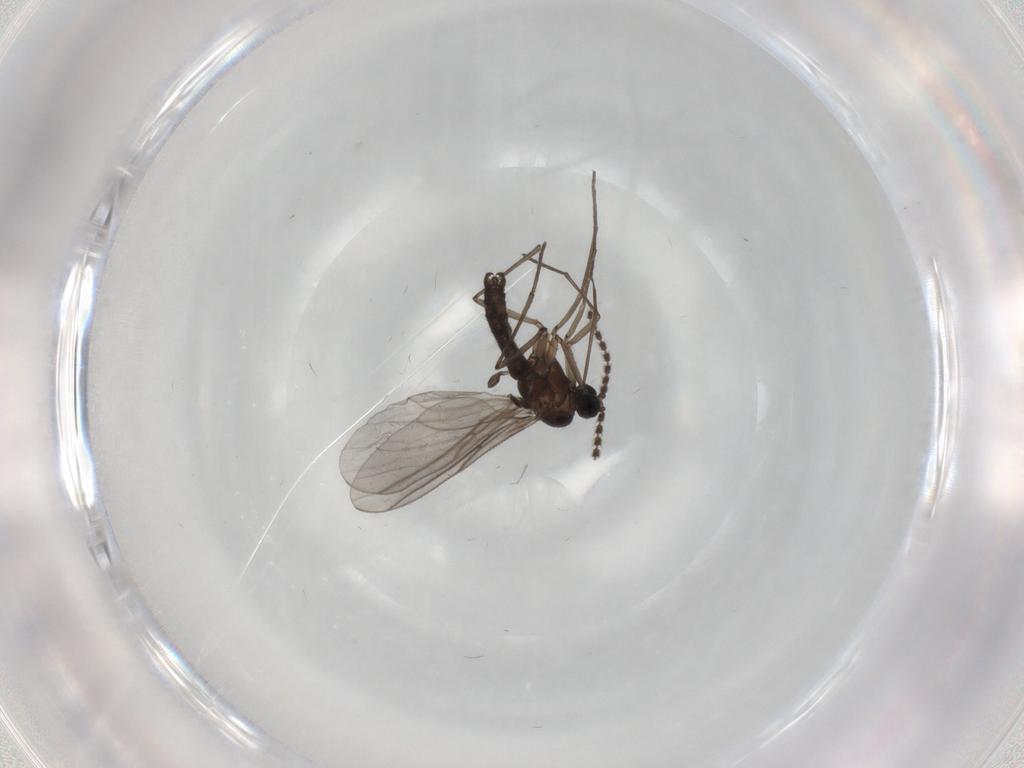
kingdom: Animalia
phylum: Arthropoda
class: Insecta
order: Diptera
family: Sciaridae
